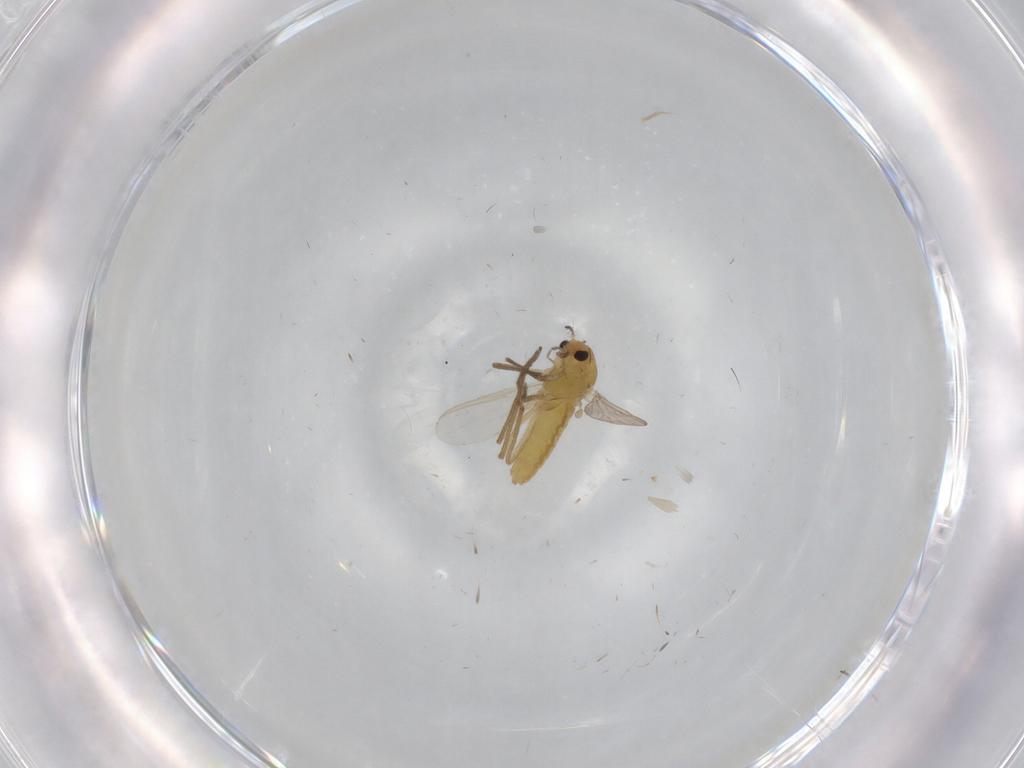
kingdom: Animalia
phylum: Arthropoda
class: Insecta
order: Diptera
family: Chironomidae
